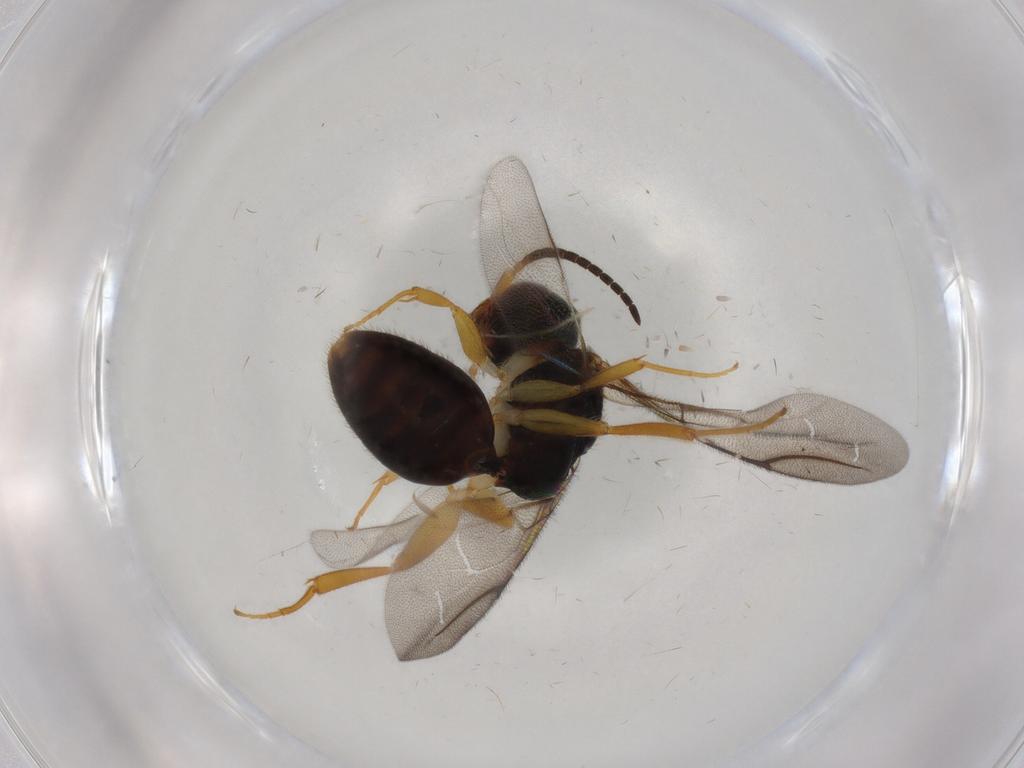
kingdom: Animalia
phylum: Arthropoda
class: Insecta
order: Hymenoptera
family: Bethylidae
